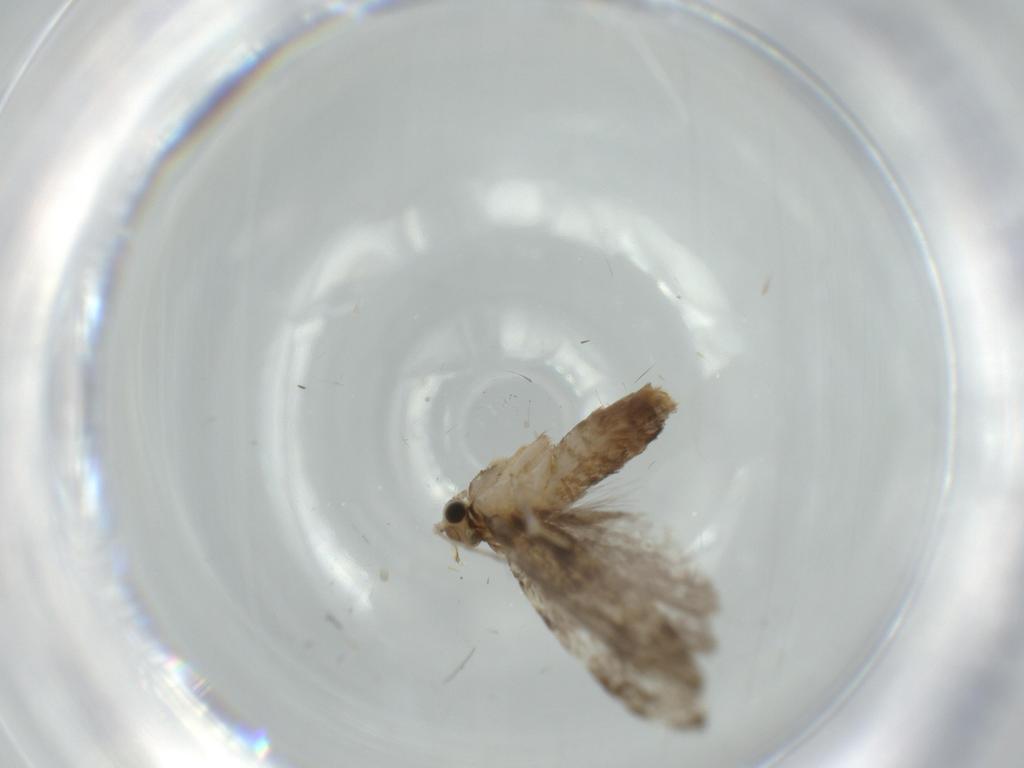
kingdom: Animalia
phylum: Arthropoda
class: Insecta
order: Lepidoptera
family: Tineidae
